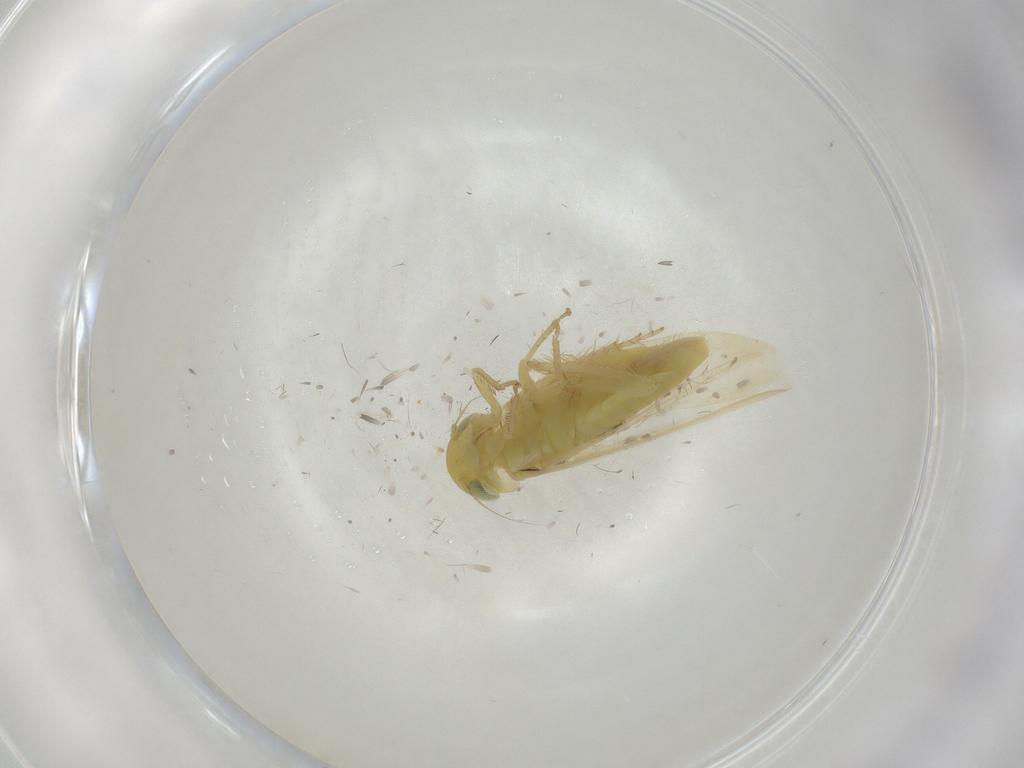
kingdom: Animalia
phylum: Arthropoda
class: Insecta
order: Hemiptera
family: Cicadellidae
